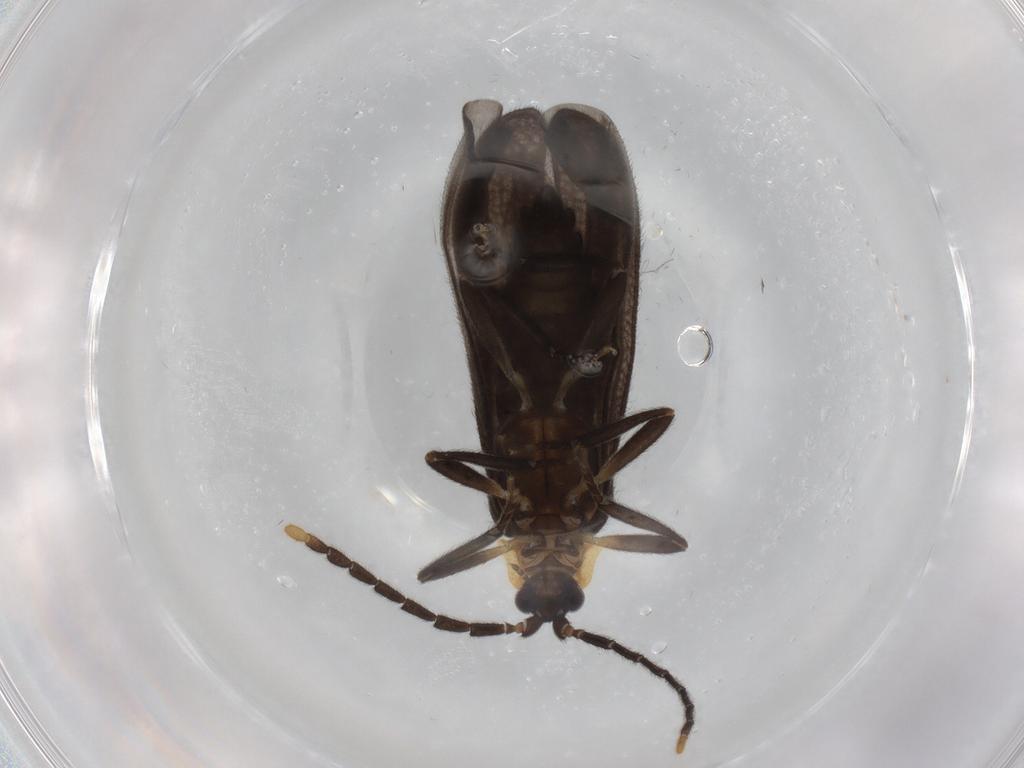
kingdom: Animalia
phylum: Arthropoda
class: Insecta
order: Coleoptera
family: Lycidae
